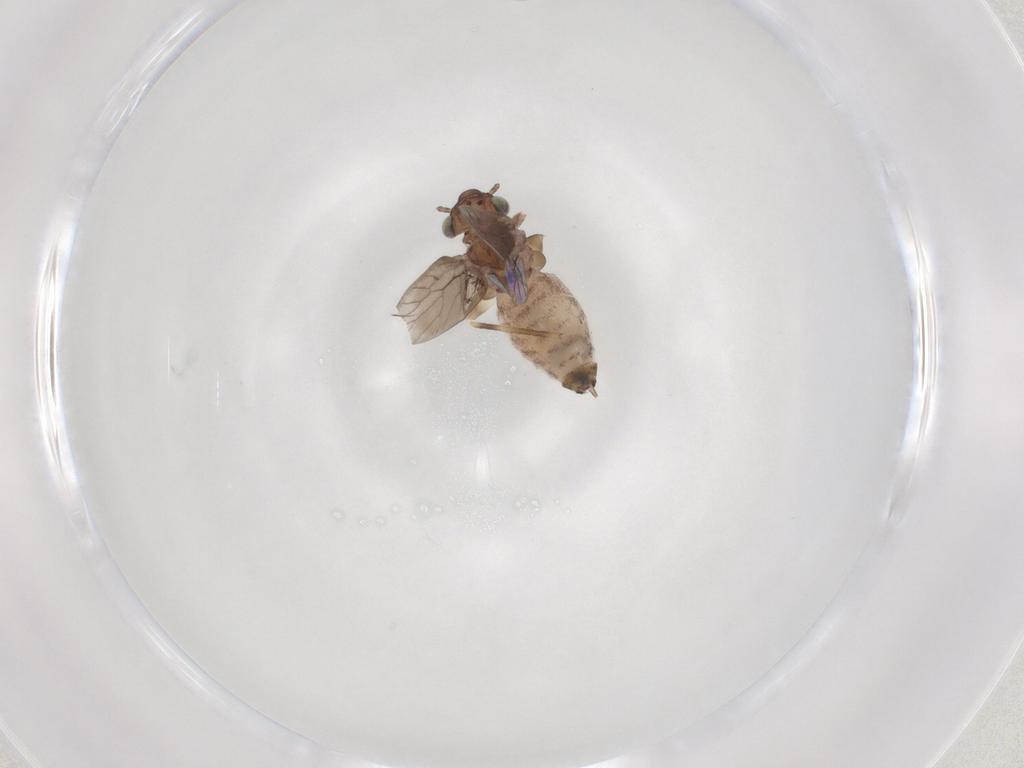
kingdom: Animalia
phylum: Arthropoda
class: Insecta
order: Psocodea
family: Lepidopsocidae
